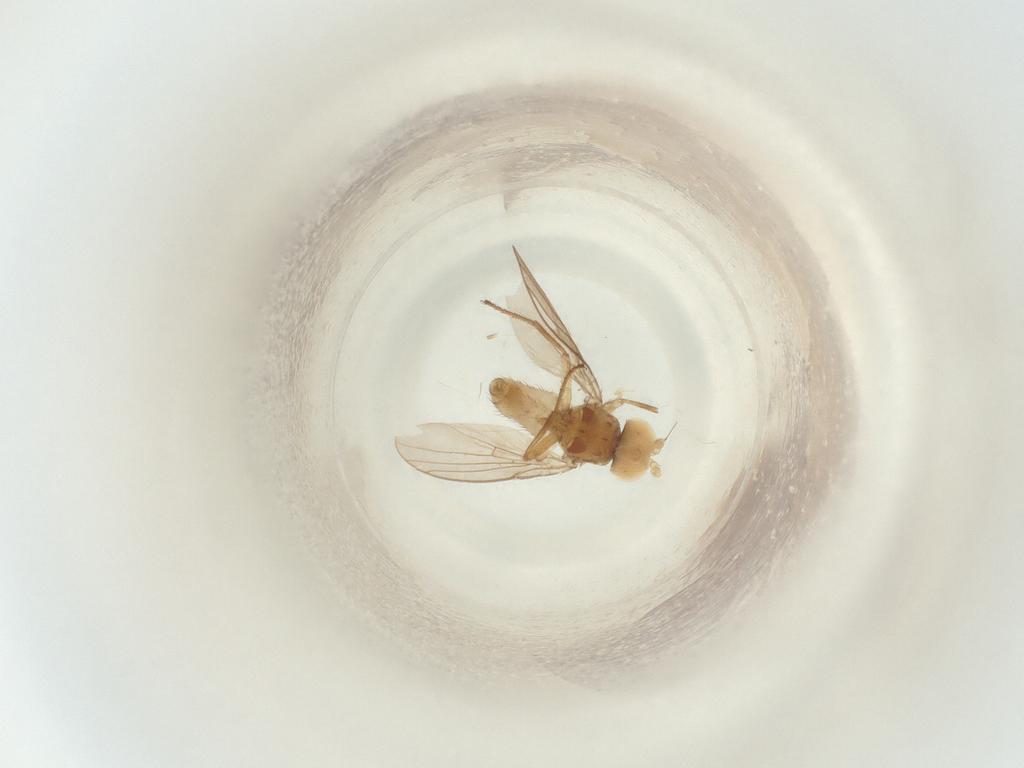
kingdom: Animalia
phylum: Arthropoda
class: Insecta
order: Diptera
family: Agromyzidae
